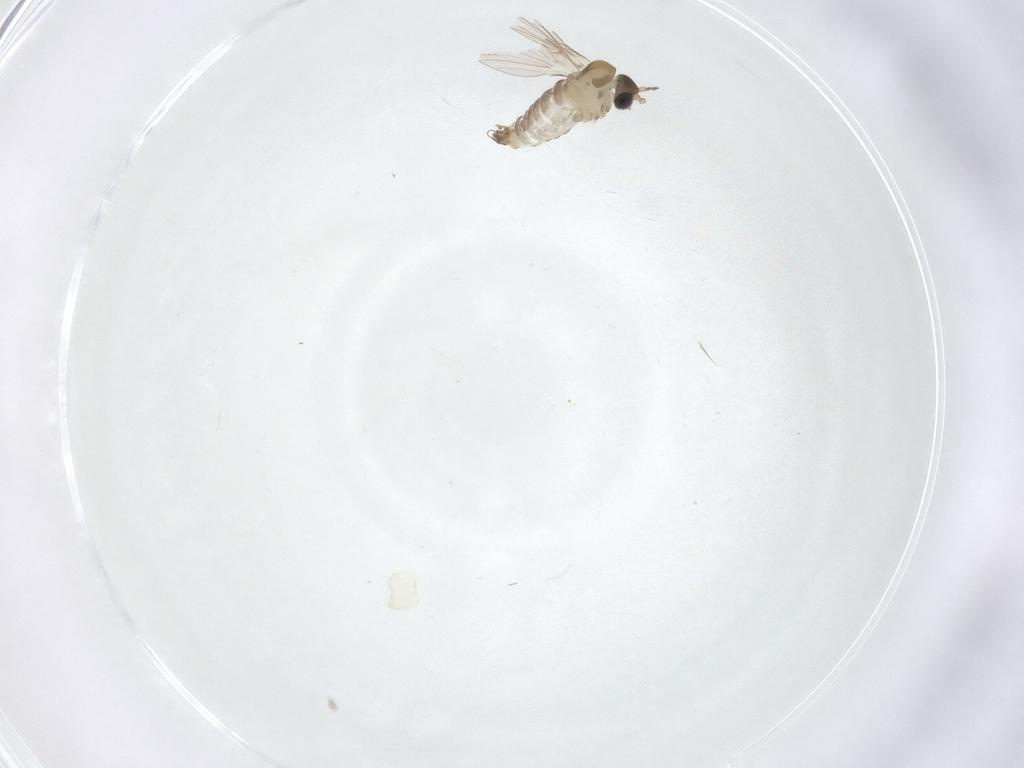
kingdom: Animalia
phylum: Arthropoda
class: Insecta
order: Diptera
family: Psychodidae
